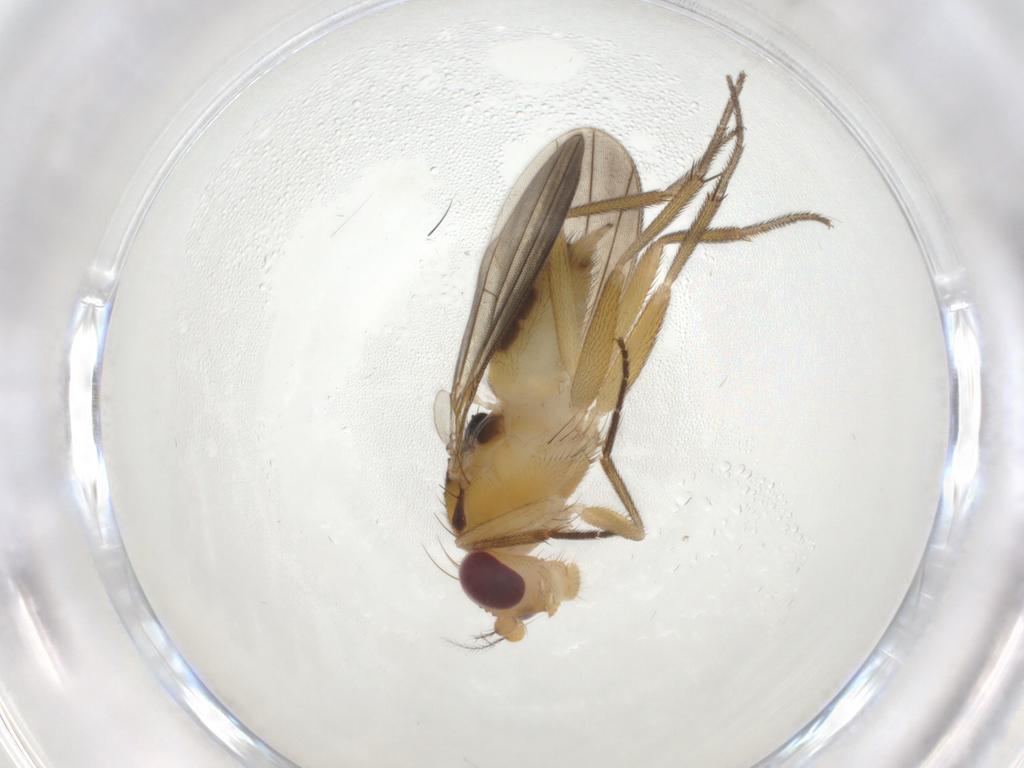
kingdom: Animalia
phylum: Arthropoda
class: Insecta
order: Diptera
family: Clusiidae
